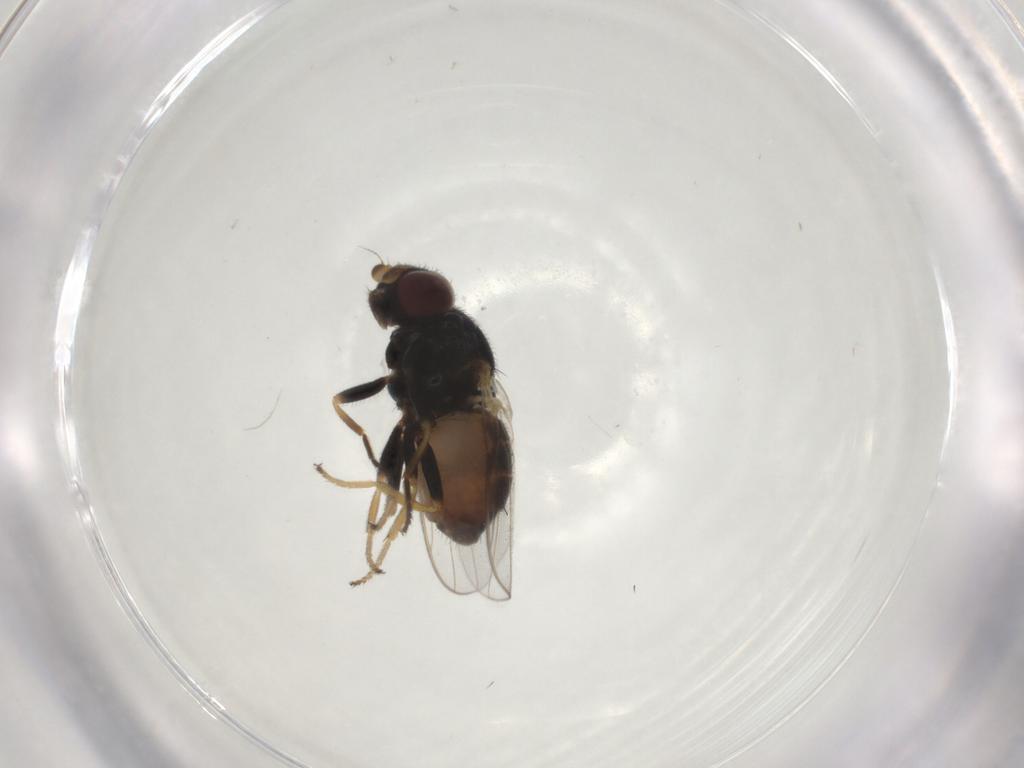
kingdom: Animalia
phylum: Arthropoda
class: Insecta
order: Diptera
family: Chloropidae
